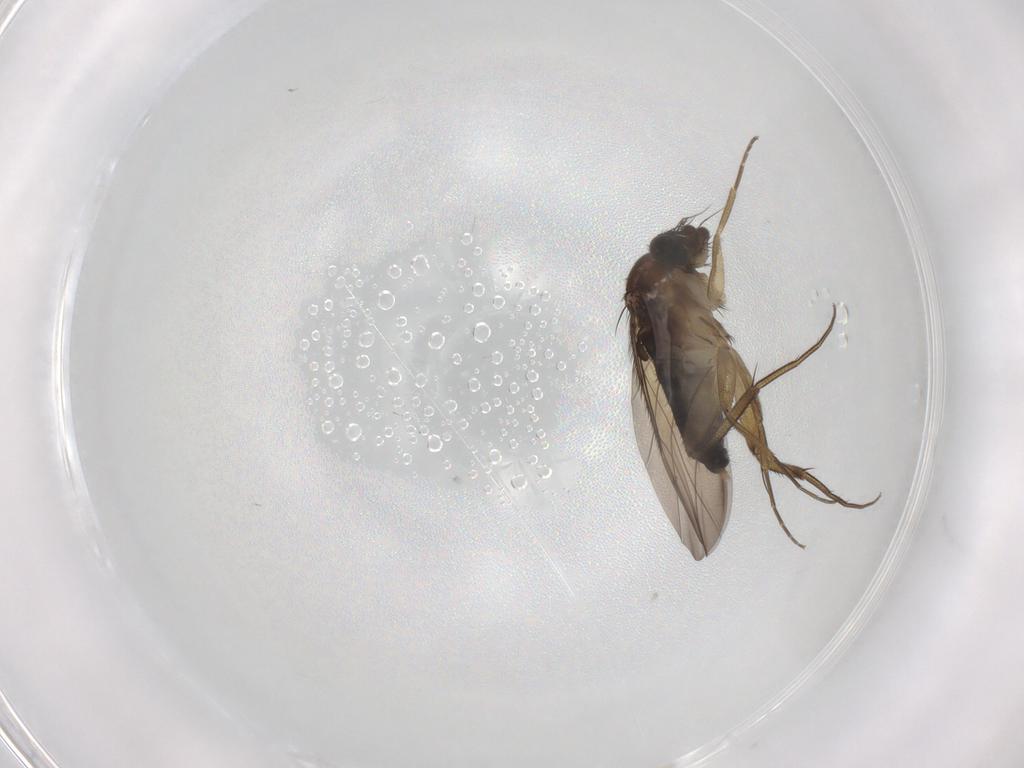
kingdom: Animalia
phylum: Arthropoda
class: Insecta
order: Diptera
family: Phoridae
